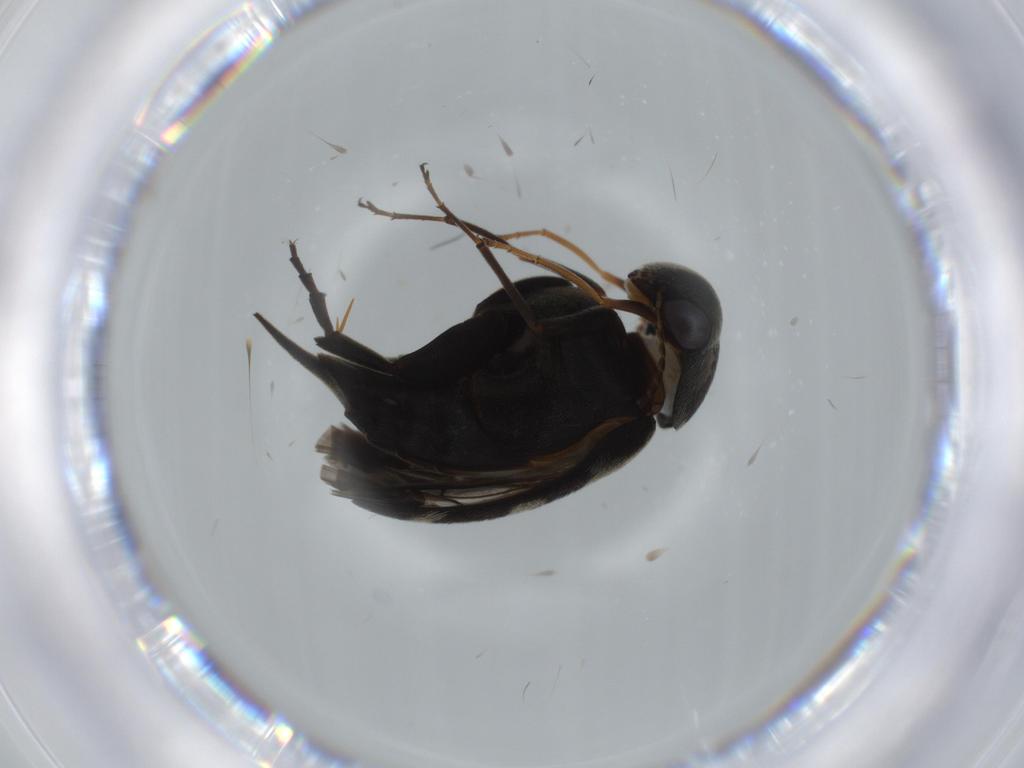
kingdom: Animalia
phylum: Arthropoda
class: Insecta
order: Coleoptera
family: Mordellidae
